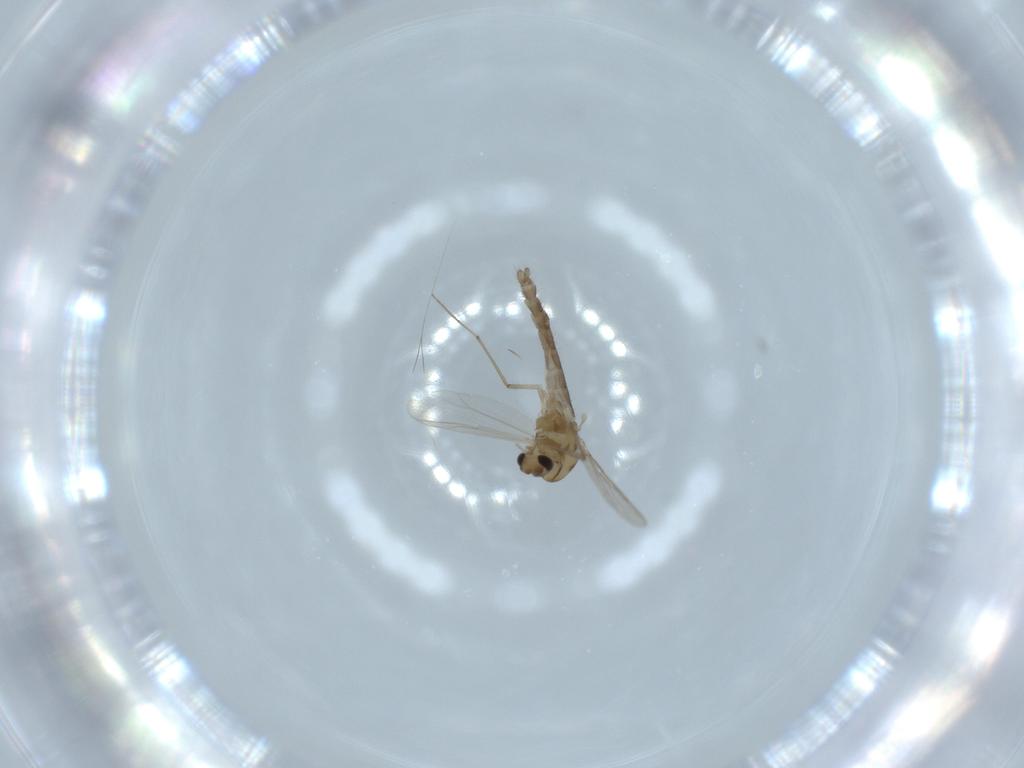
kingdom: Animalia
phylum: Arthropoda
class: Insecta
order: Diptera
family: Chironomidae
